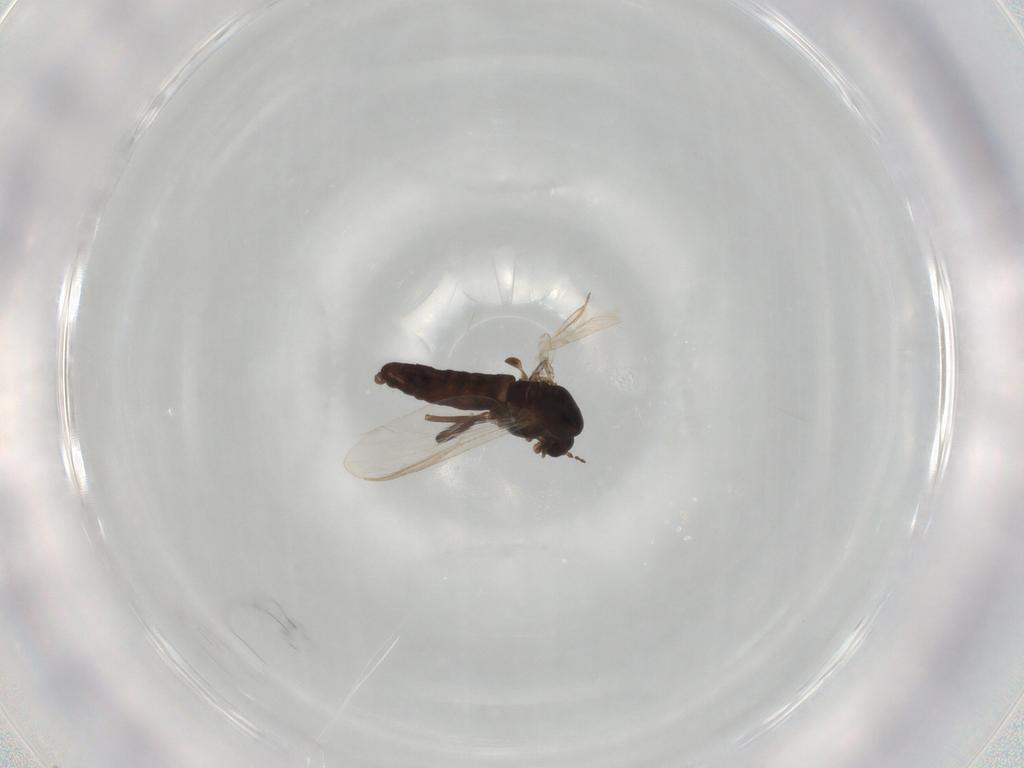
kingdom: Animalia
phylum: Arthropoda
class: Insecta
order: Diptera
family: Chironomidae
